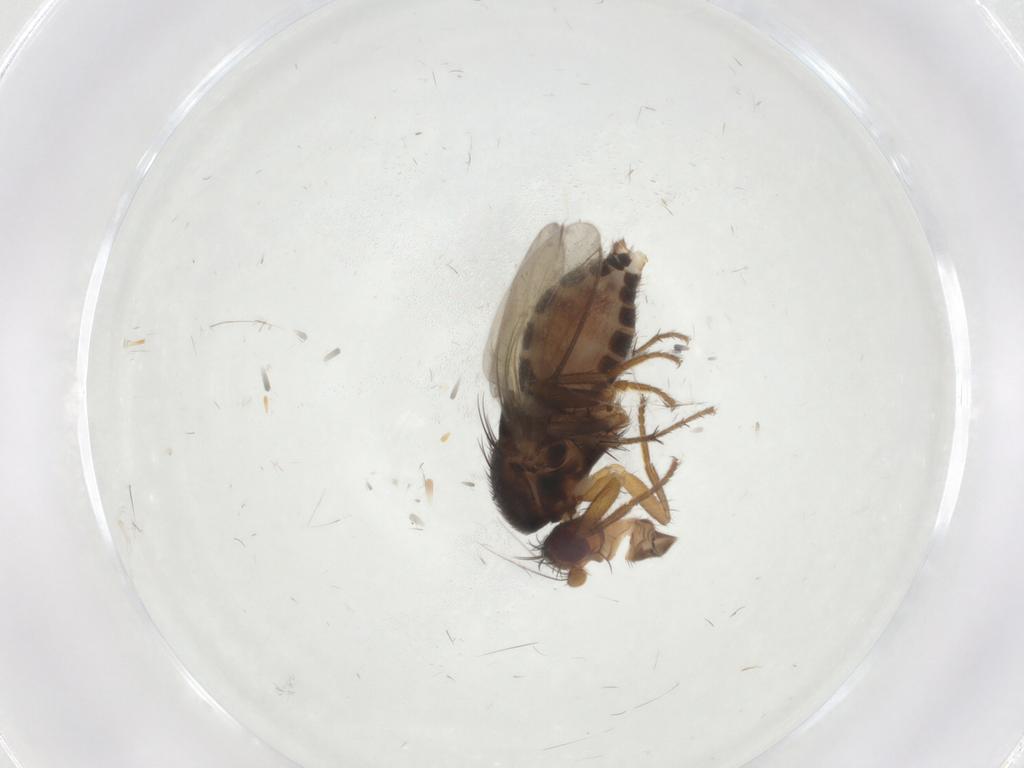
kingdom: Animalia
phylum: Arthropoda
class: Insecta
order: Diptera
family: Sphaeroceridae
